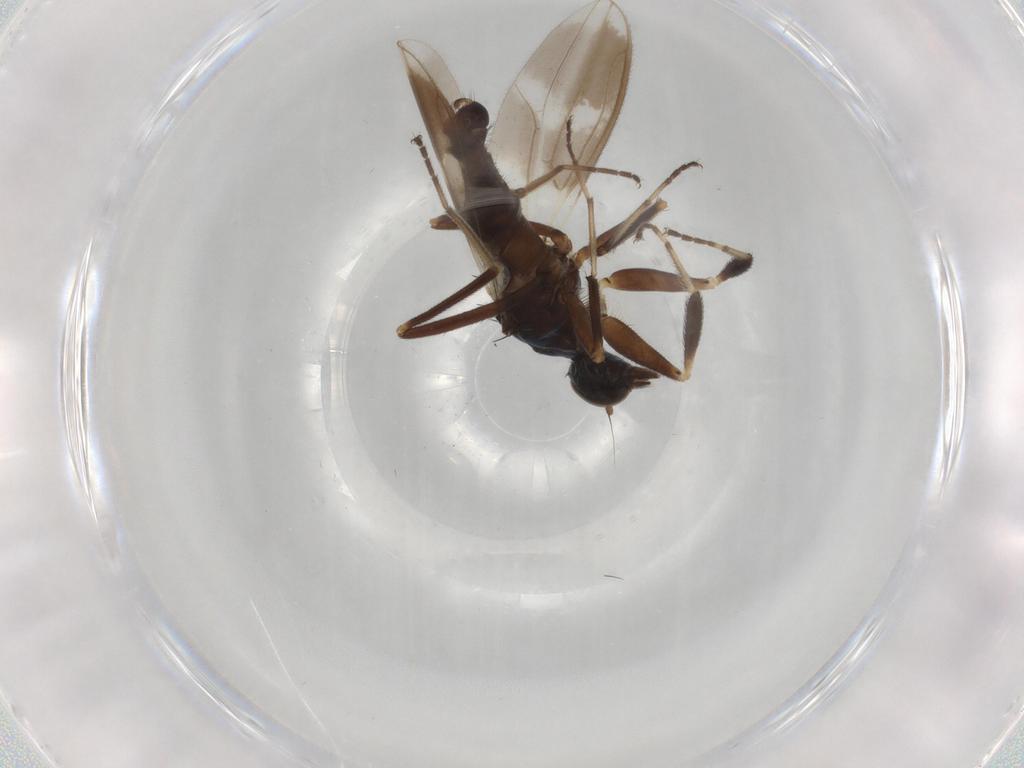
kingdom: Animalia
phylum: Arthropoda
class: Insecta
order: Diptera
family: Hybotidae
